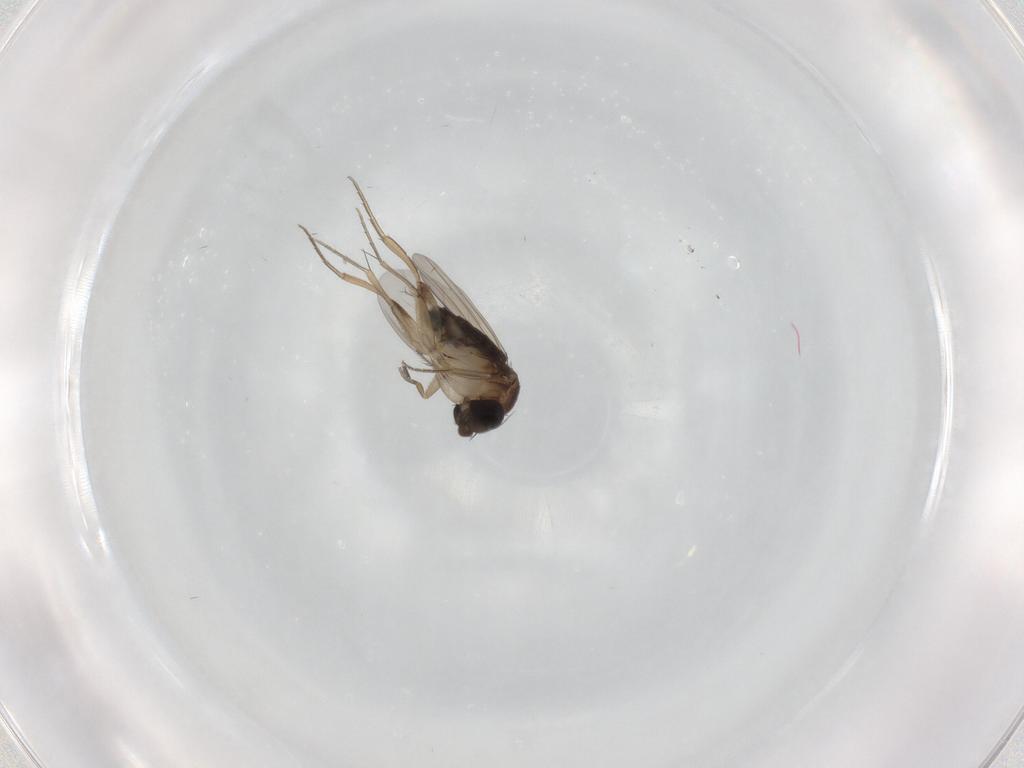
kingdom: Animalia
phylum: Arthropoda
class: Insecta
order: Diptera
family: Phoridae
